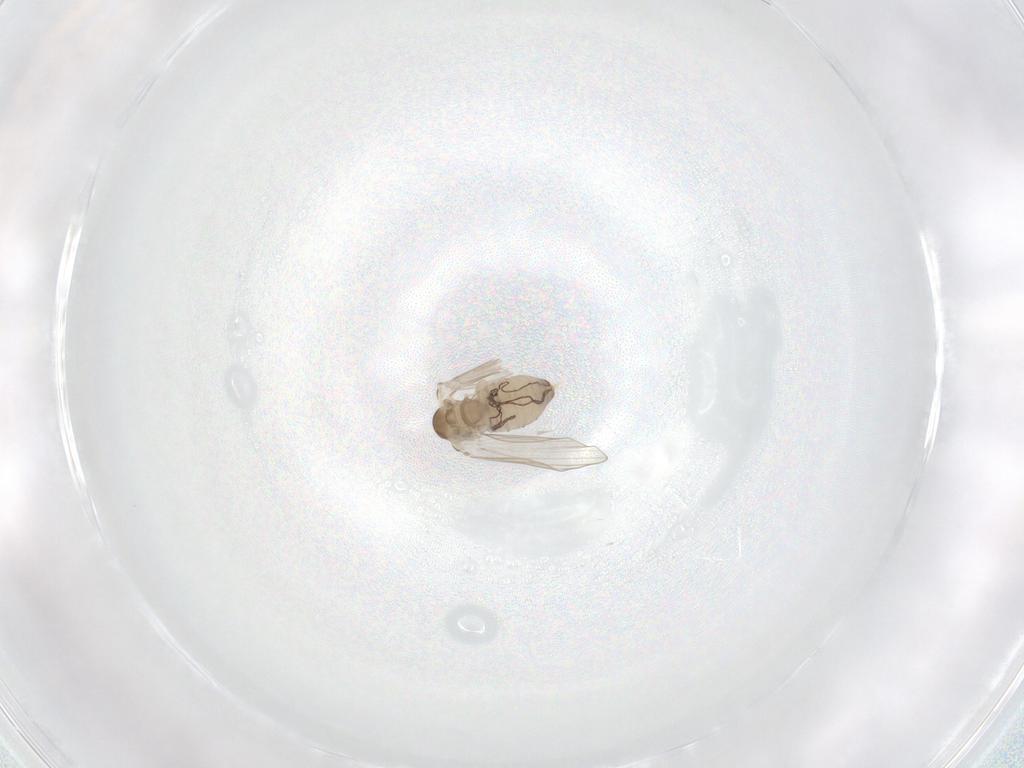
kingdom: Animalia
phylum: Arthropoda
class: Insecta
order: Diptera
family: Psychodidae
